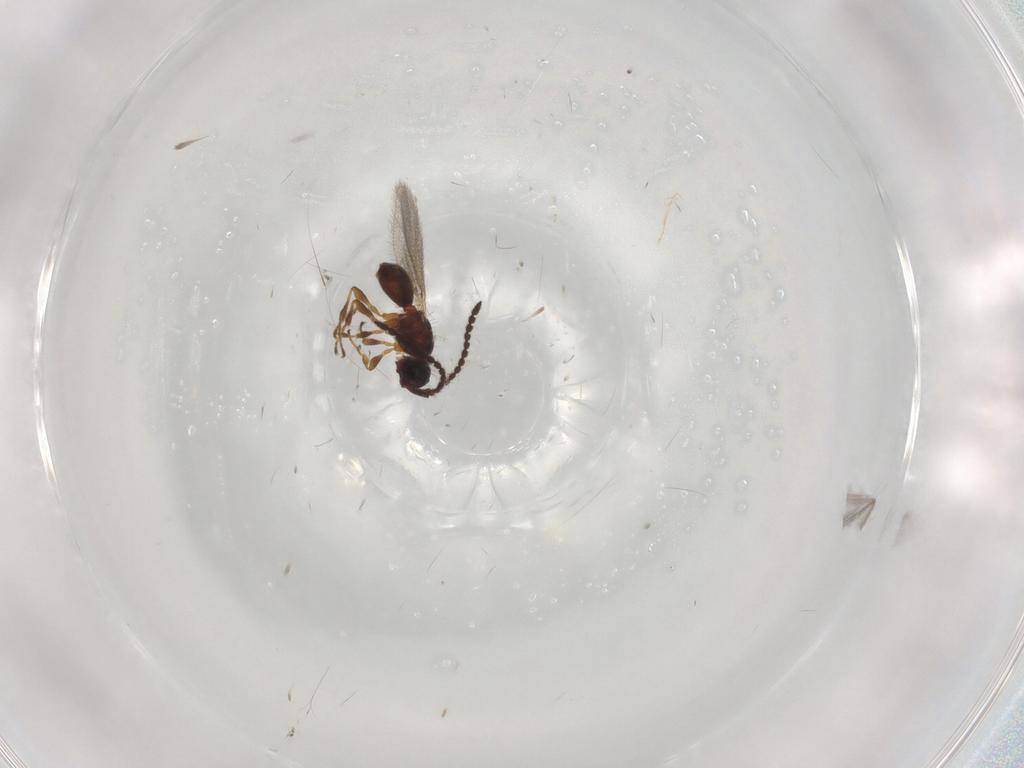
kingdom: Animalia
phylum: Arthropoda
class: Insecta
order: Hymenoptera
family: Diapriidae
